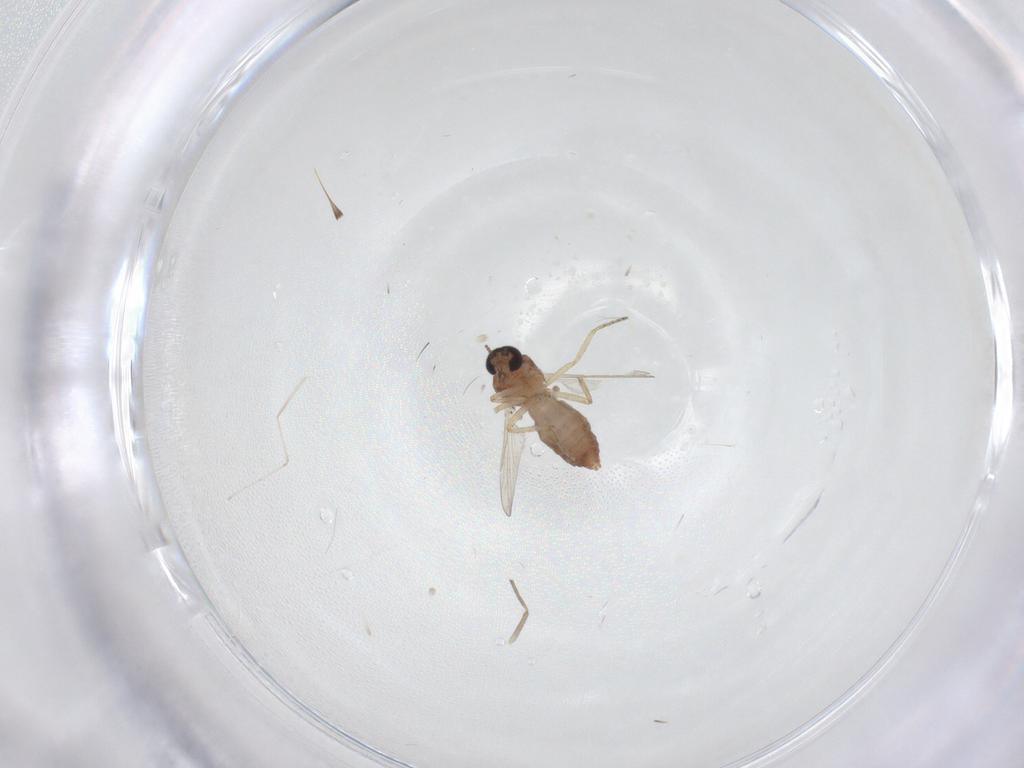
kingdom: Animalia
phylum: Arthropoda
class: Insecta
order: Diptera
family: Ceratopogonidae
